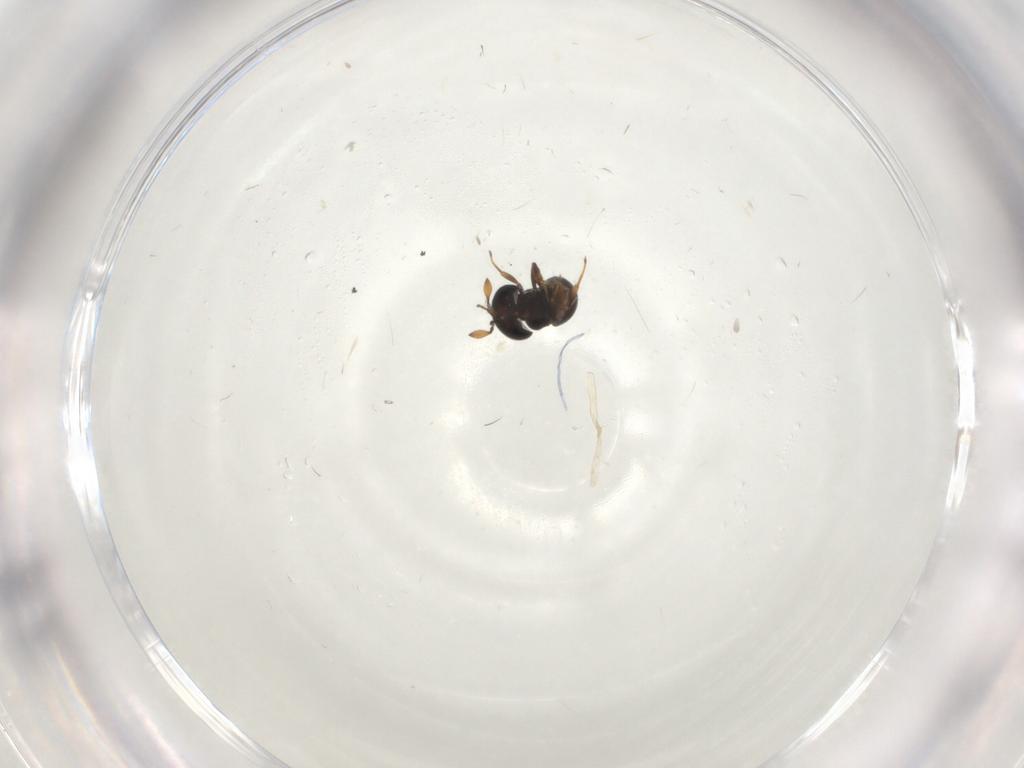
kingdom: Animalia
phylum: Arthropoda
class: Insecta
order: Hymenoptera
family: Scelionidae
